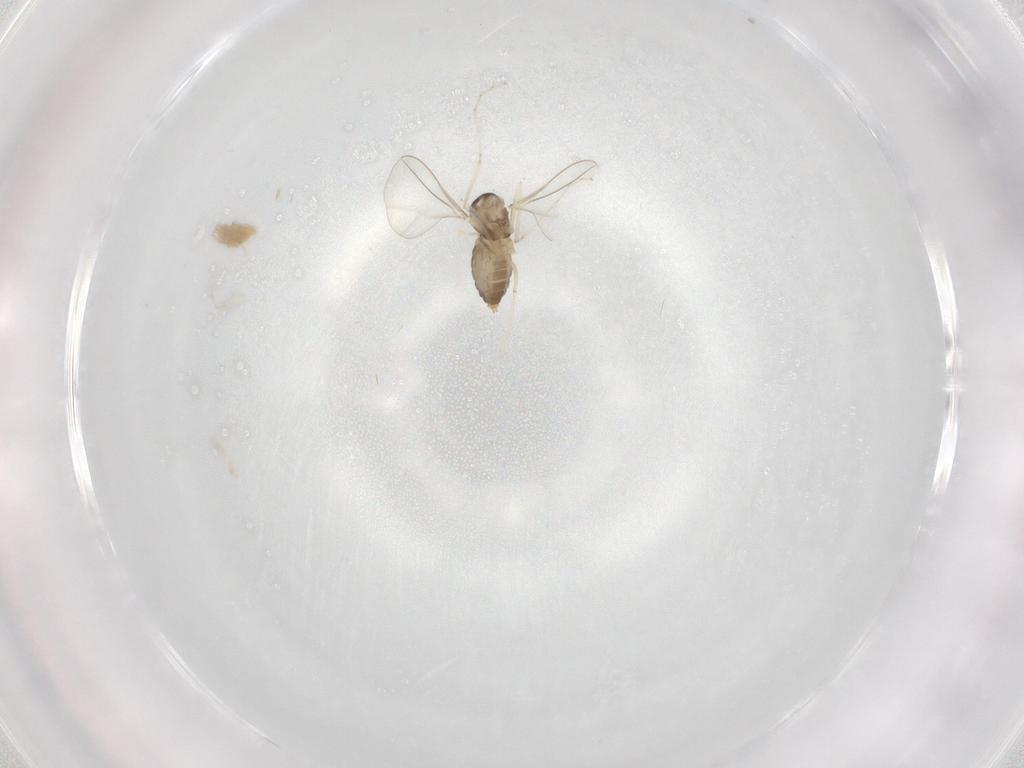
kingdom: Animalia
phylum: Arthropoda
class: Insecta
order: Diptera
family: Cecidomyiidae
